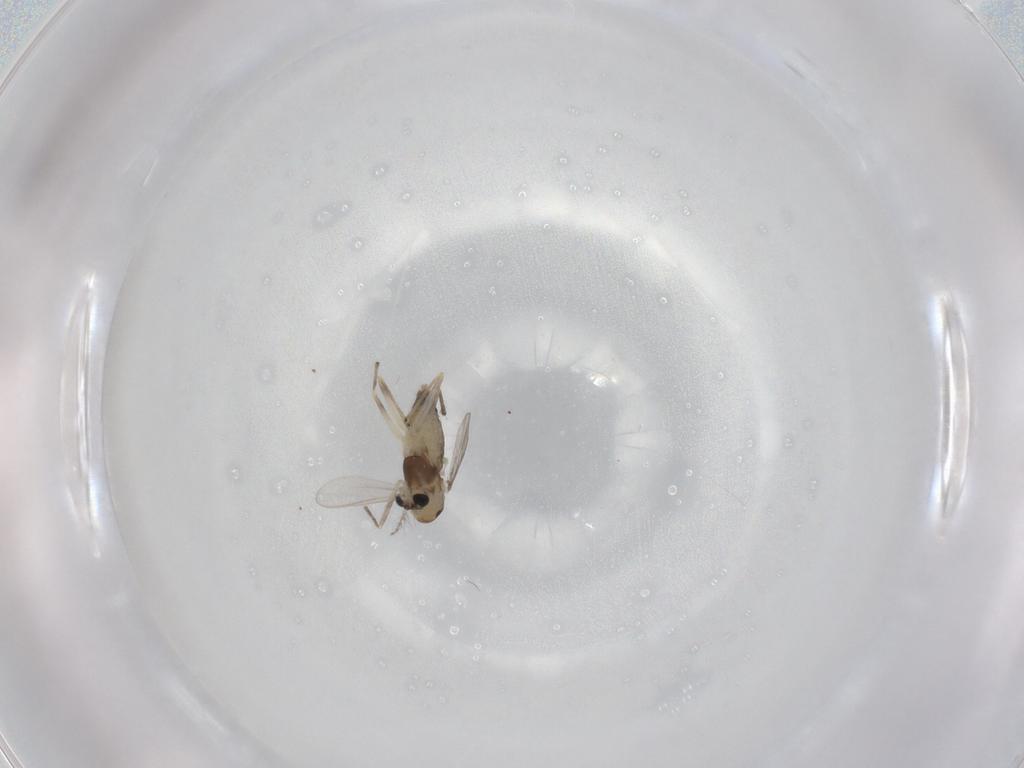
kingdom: Animalia
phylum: Arthropoda
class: Insecta
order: Diptera
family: Chironomidae
